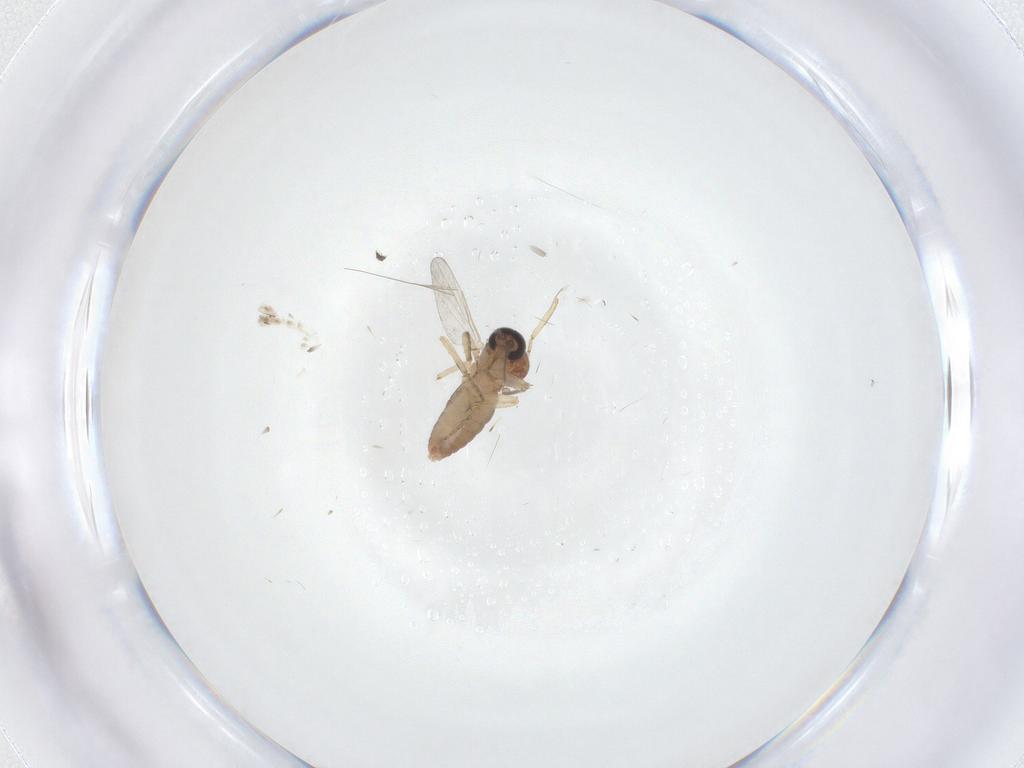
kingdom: Animalia
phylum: Arthropoda
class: Insecta
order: Diptera
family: Ceratopogonidae
